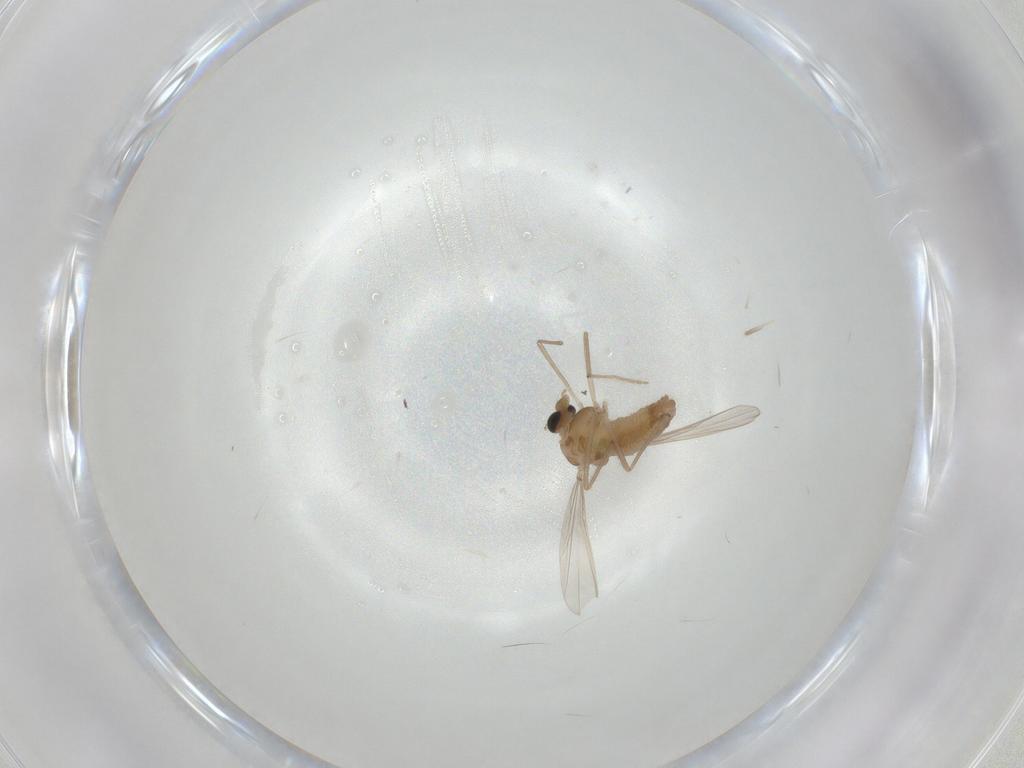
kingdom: Animalia
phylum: Arthropoda
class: Insecta
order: Diptera
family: Chironomidae
